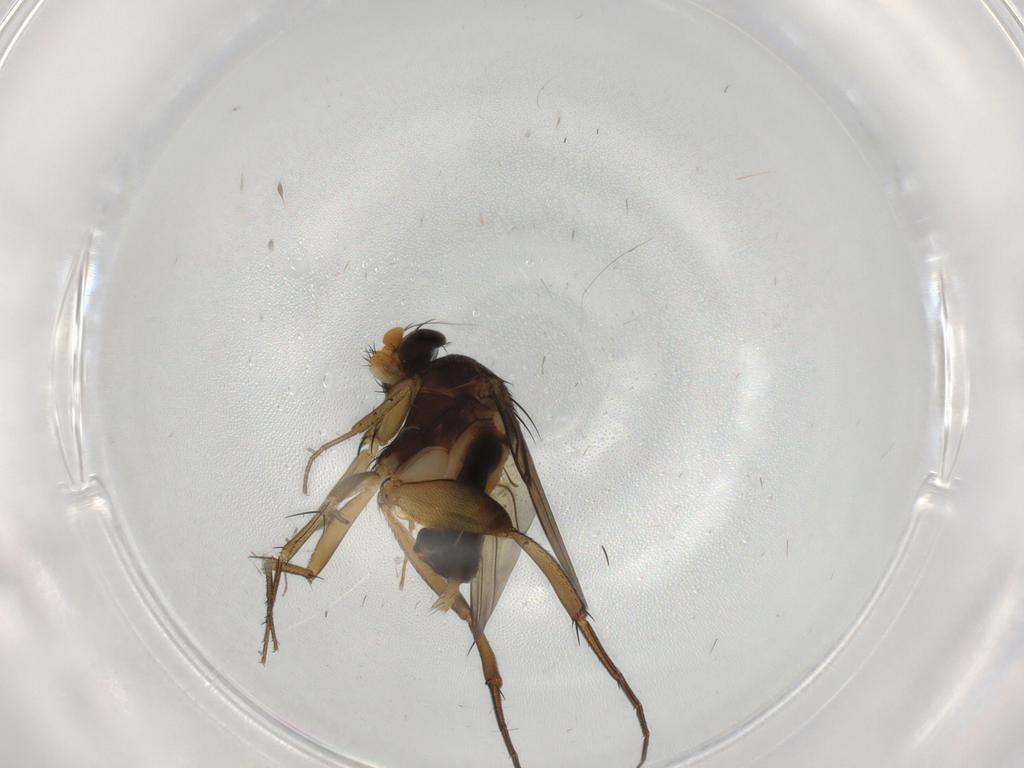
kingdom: Animalia
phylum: Arthropoda
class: Insecta
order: Diptera
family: Phoridae
